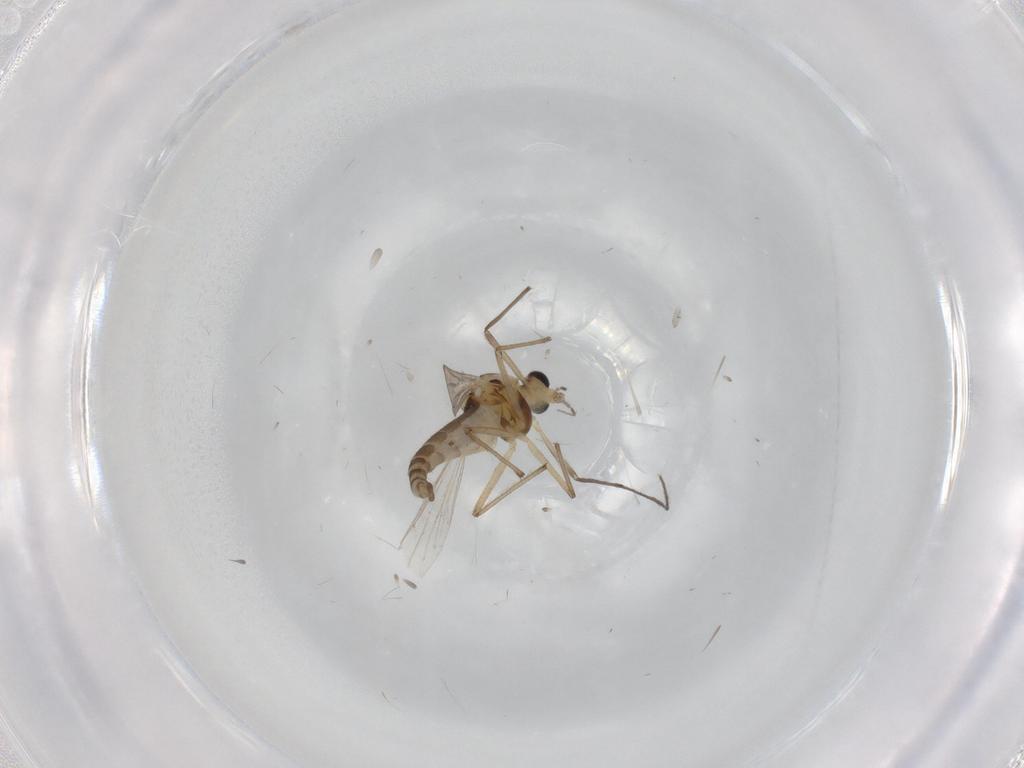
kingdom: Animalia
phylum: Arthropoda
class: Insecta
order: Diptera
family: Chironomidae
